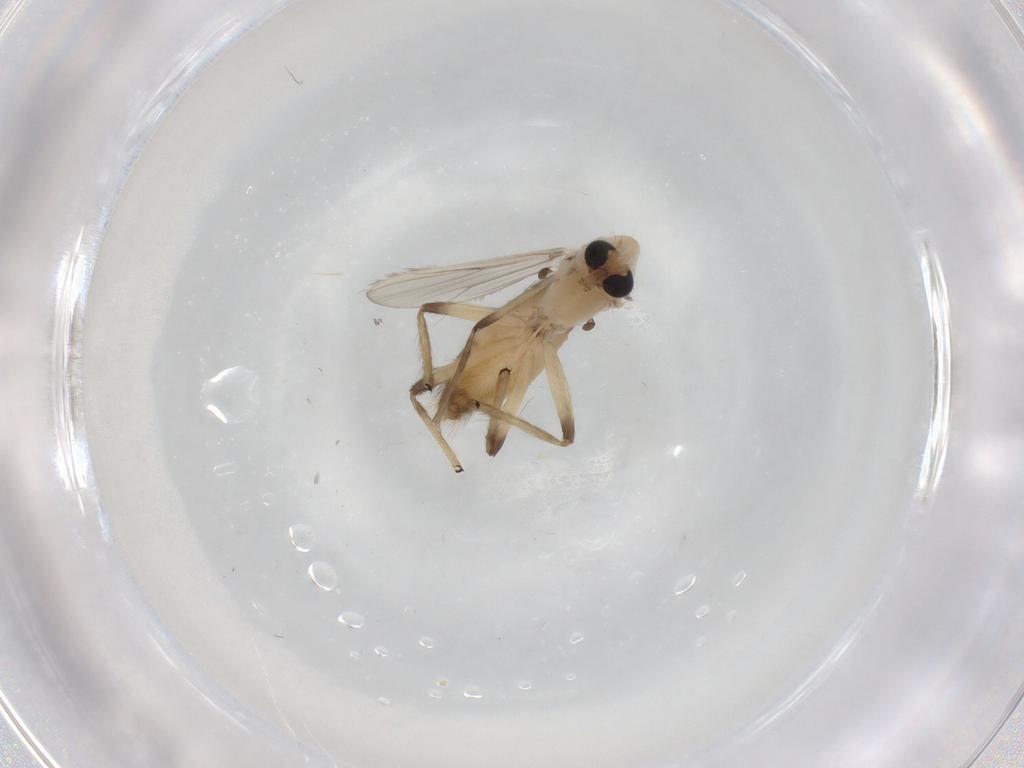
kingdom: Animalia
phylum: Arthropoda
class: Insecta
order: Diptera
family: Chironomidae
